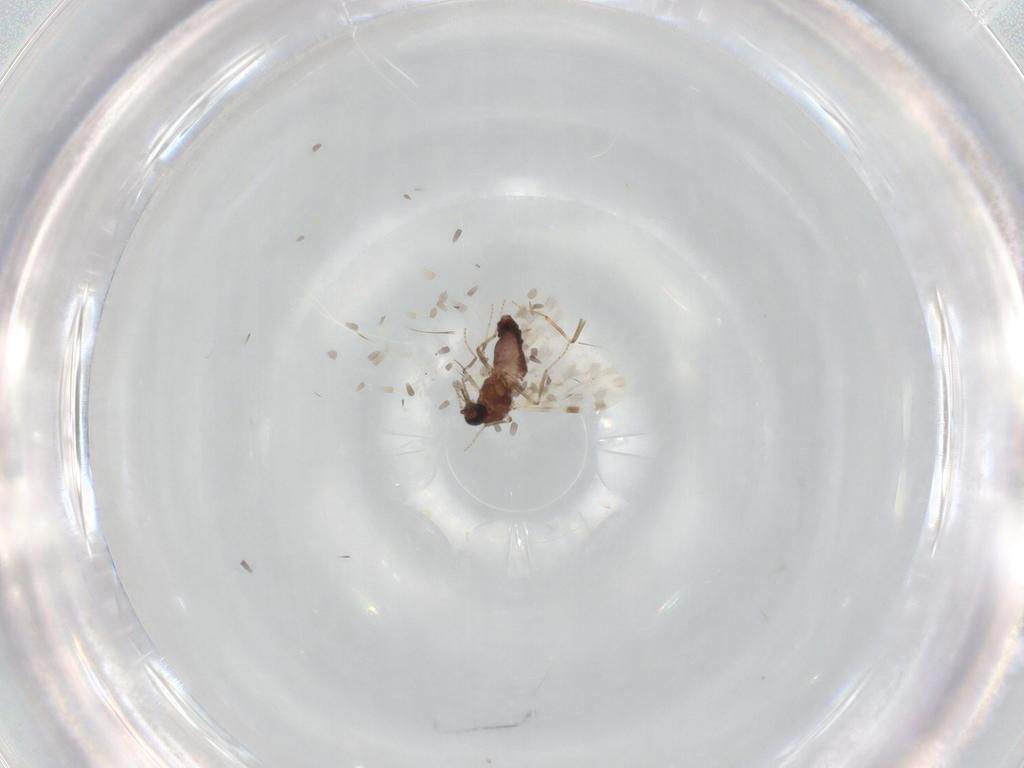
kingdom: Animalia
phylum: Arthropoda
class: Insecta
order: Diptera
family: Ceratopogonidae
